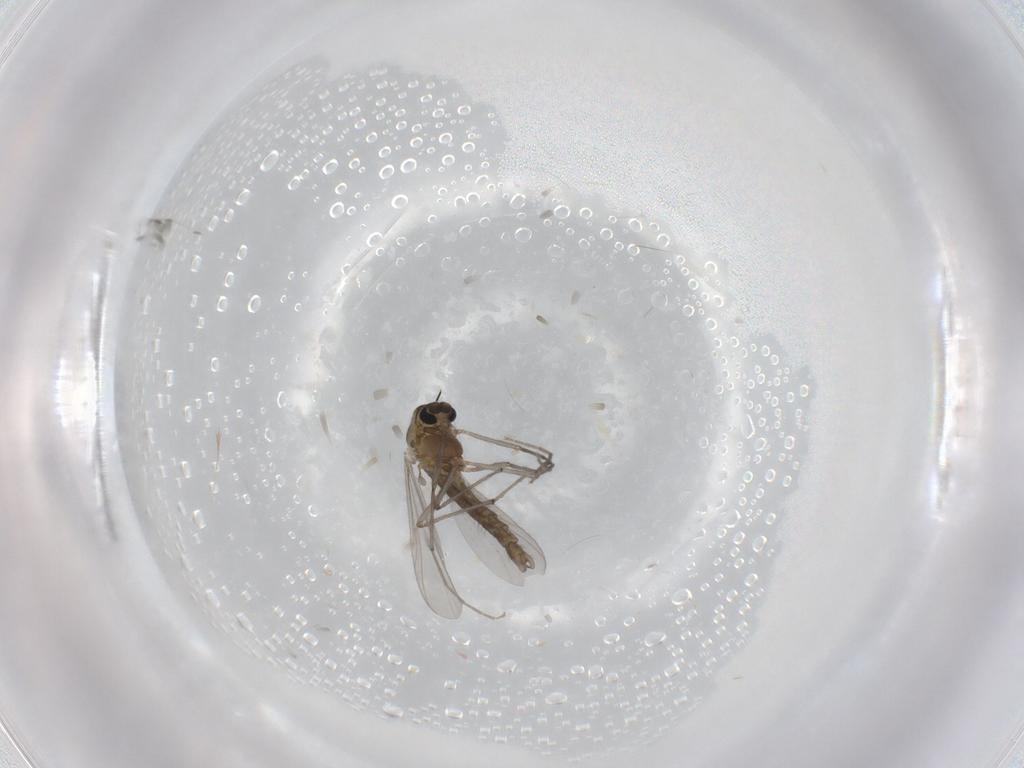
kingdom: Animalia
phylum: Arthropoda
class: Insecta
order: Diptera
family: Chironomidae
